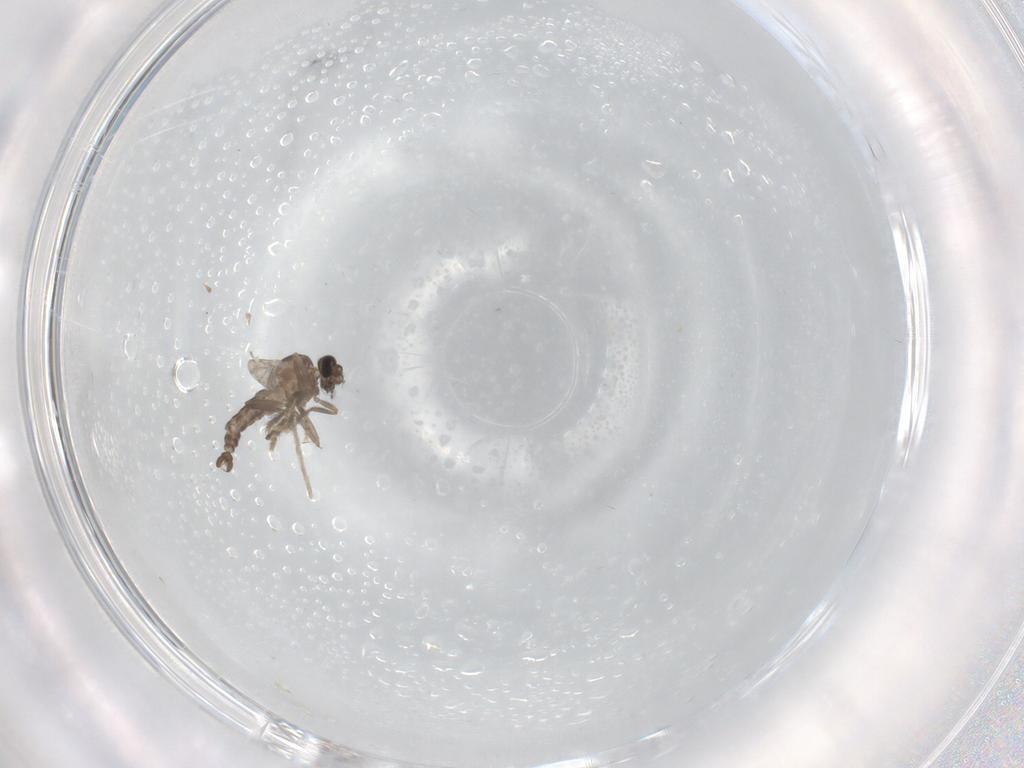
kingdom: Animalia
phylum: Arthropoda
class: Insecta
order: Diptera
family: Ceratopogonidae
